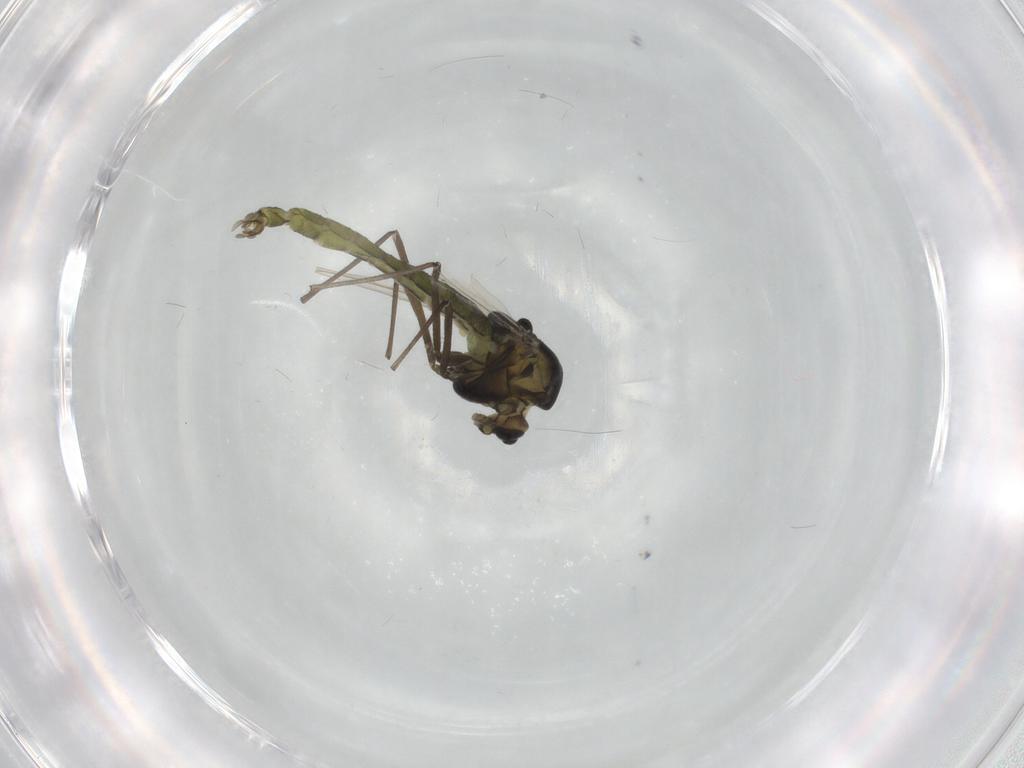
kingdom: Animalia
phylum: Arthropoda
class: Insecta
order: Diptera
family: Chironomidae
